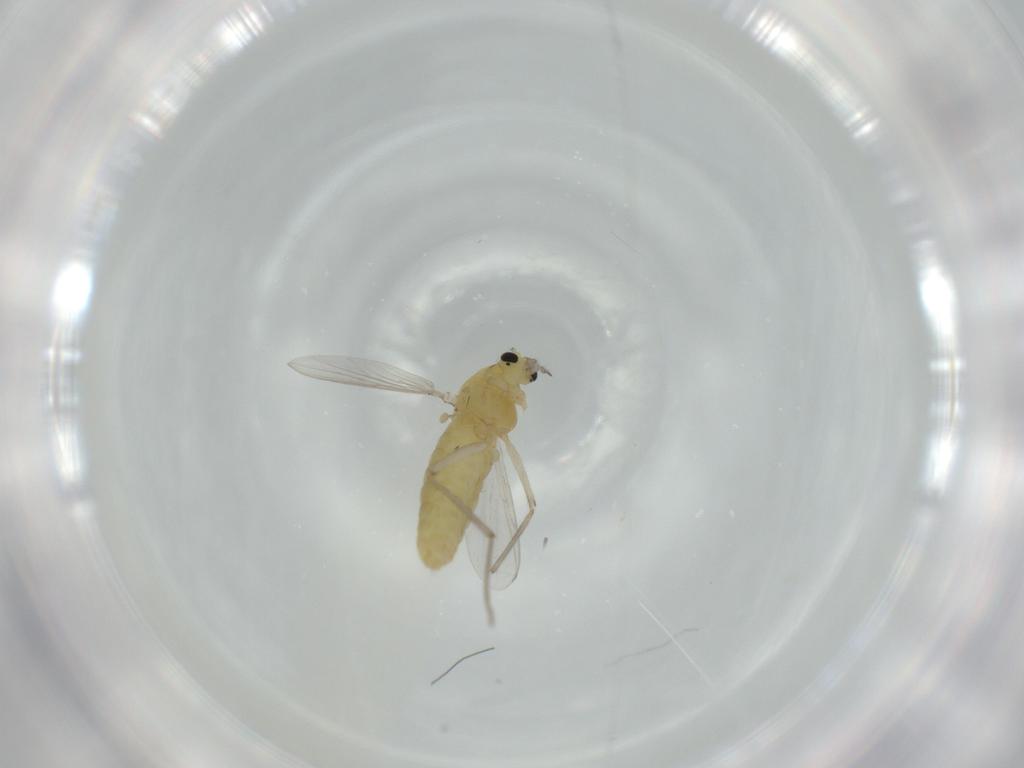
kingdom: Animalia
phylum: Arthropoda
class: Insecta
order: Diptera
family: Chironomidae
